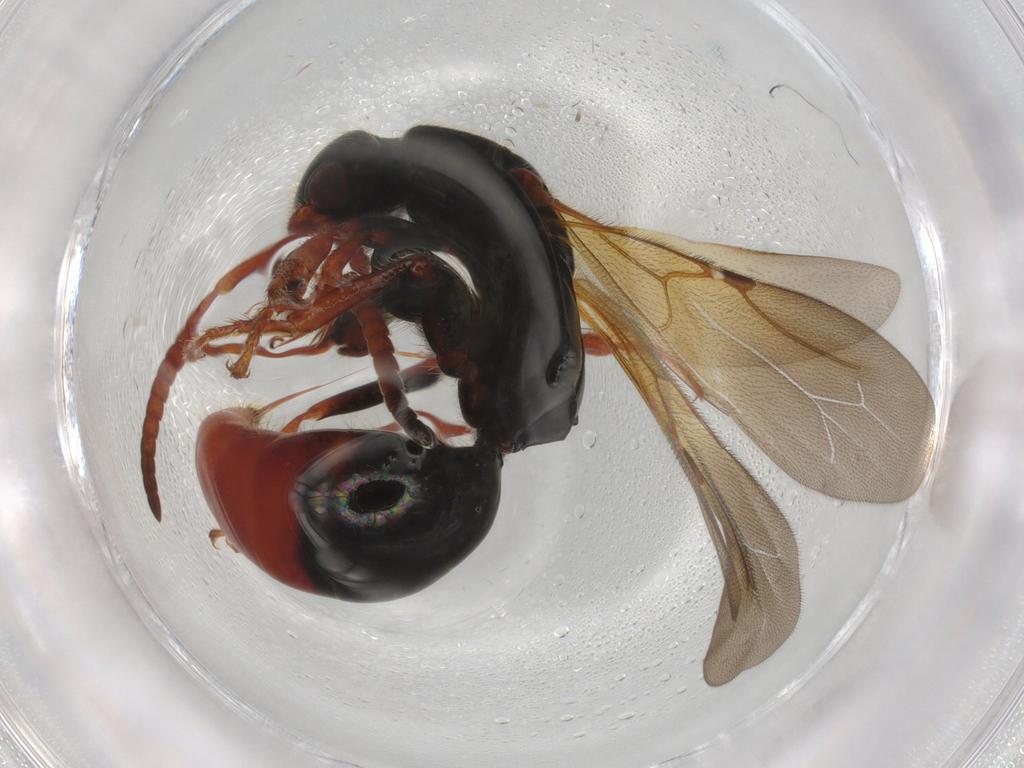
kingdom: Animalia
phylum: Arthropoda
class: Insecta
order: Hymenoptera
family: Bethylidae
